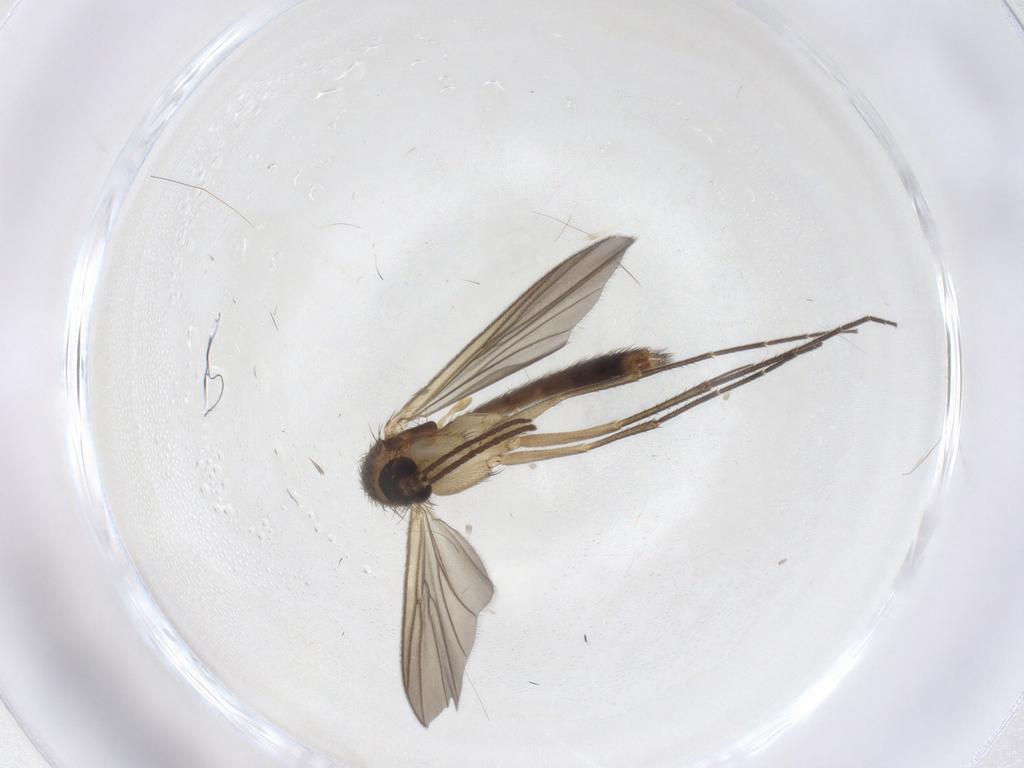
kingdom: Animalia
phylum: Arthropoda
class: Insecta
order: Diptera
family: Mycetophilidae
